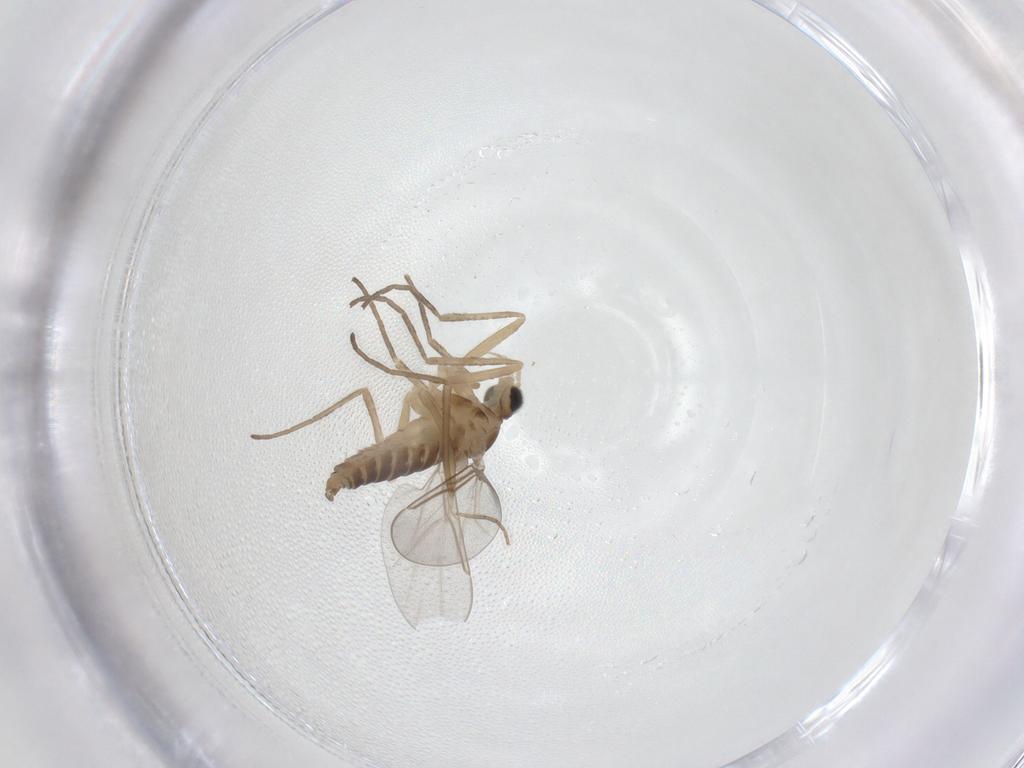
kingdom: Animalia
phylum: Arthropoda
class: Insecta
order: Diptera
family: Cecidomyiidae
